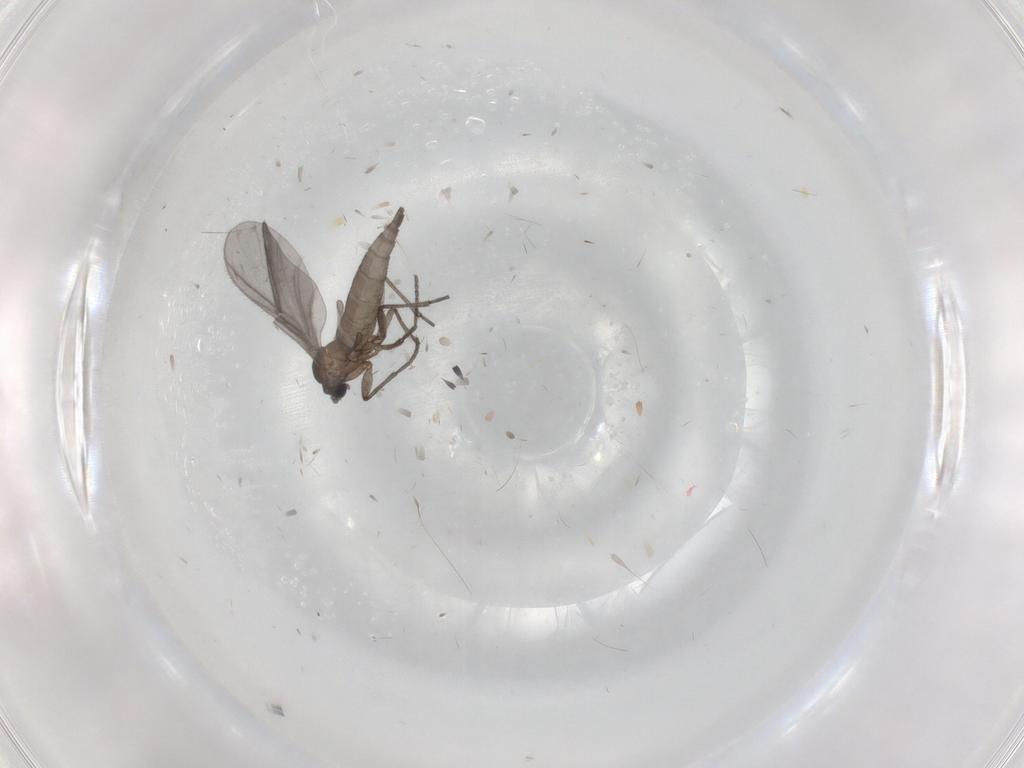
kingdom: Animalia
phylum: Arthropoda
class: Insecta
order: Diptera
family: Sciaridae
